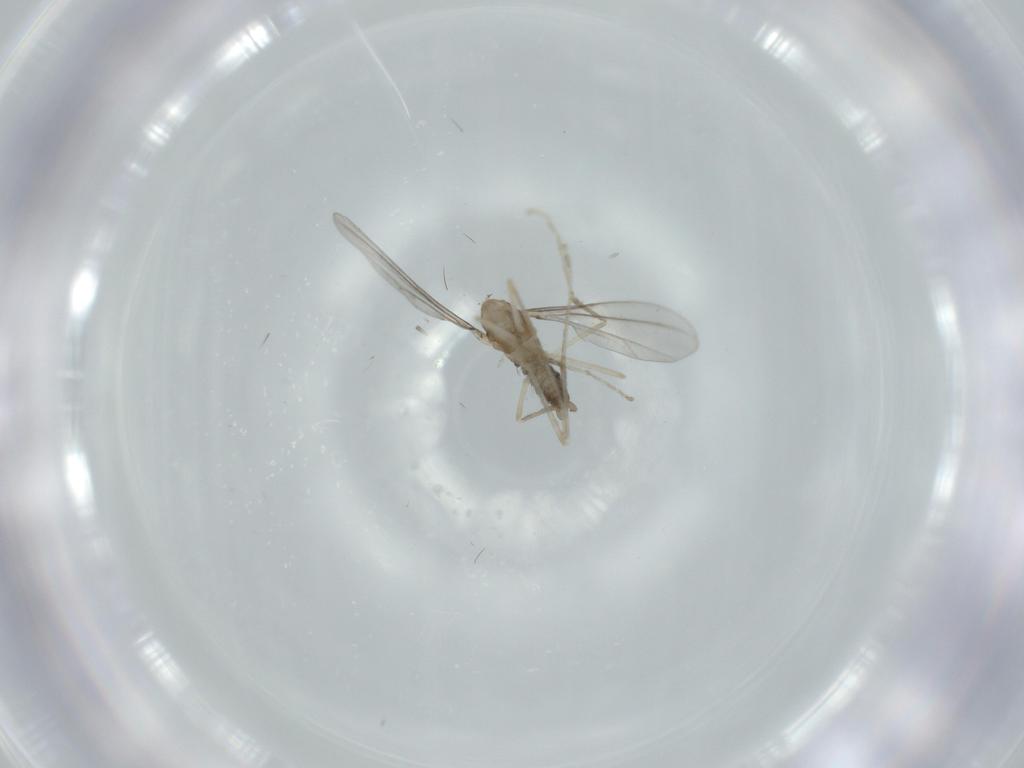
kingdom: Animalia
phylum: Arthropoda
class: Insecta
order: Diptera
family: Cecidomyiidae
